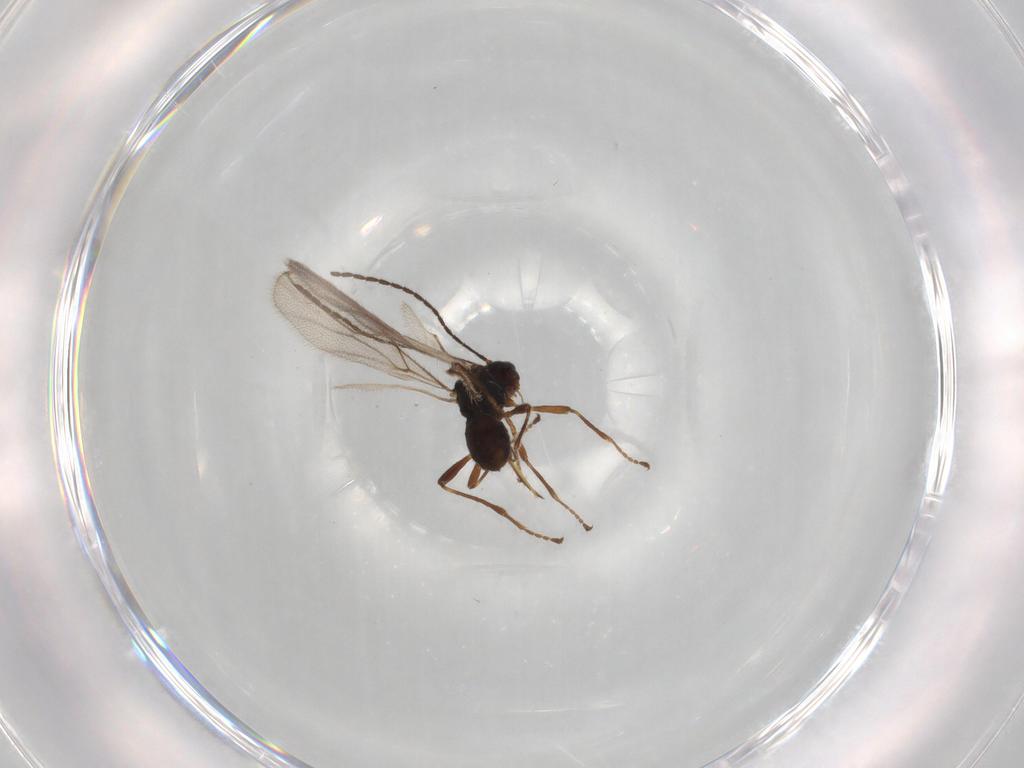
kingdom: Animalia
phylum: Arthropoda
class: Insecta
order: Hymenoptera
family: Braconidae
